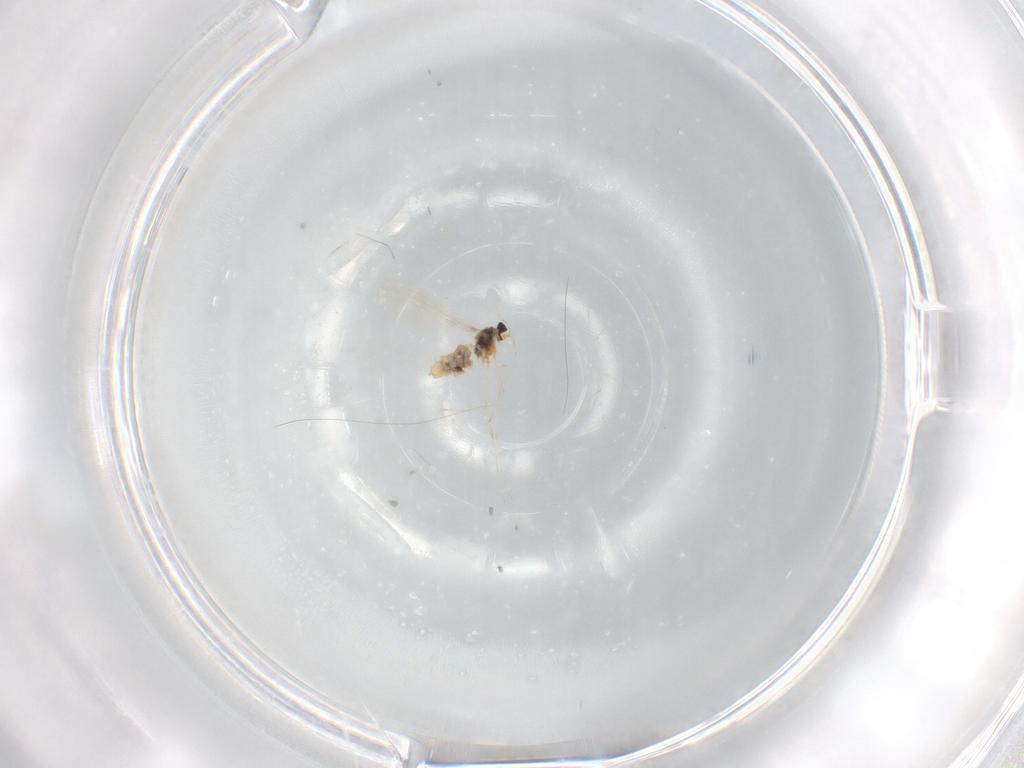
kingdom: Animalia
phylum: Arthropoda
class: Insecta
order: Diptera
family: Cecidomyiidae
